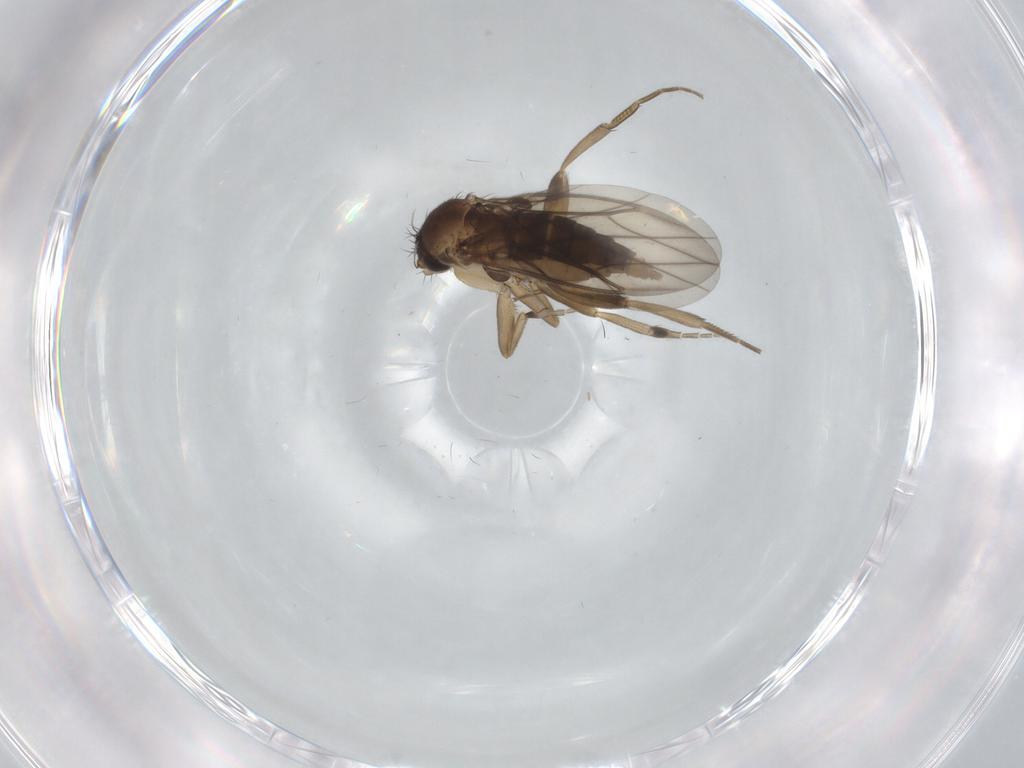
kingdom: Animalia
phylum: Arthropoda
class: Insecta
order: Diptera
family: Phoridae
